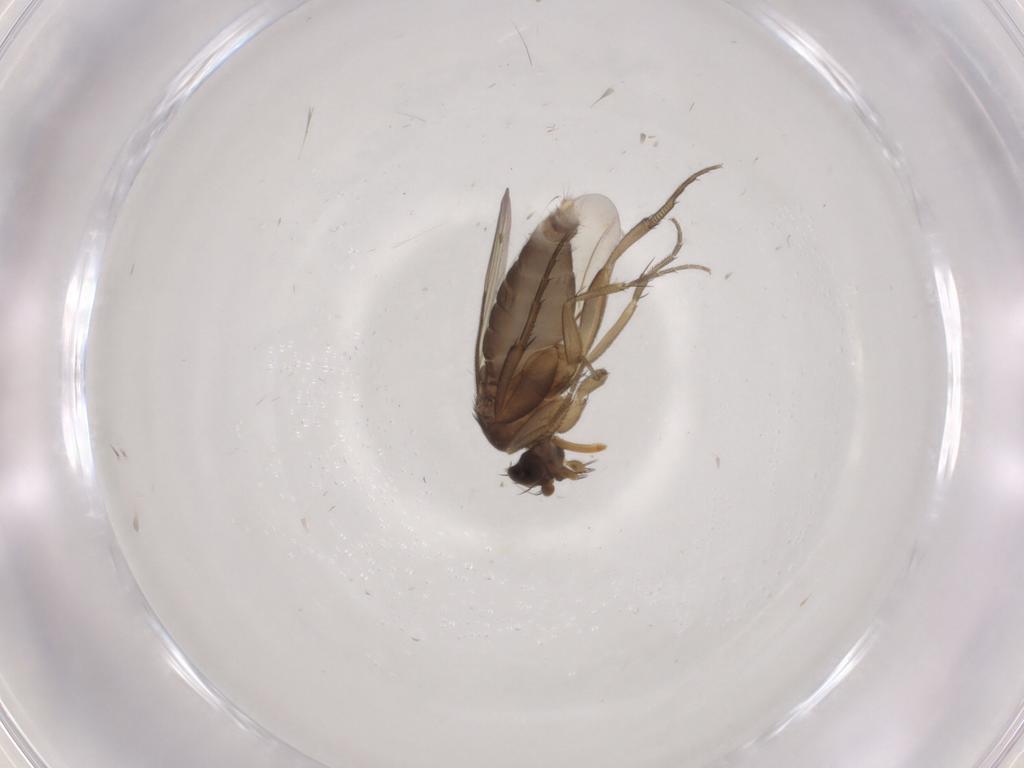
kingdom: Animalia
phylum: Arthropoda
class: Insecta
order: Diptera
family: Phoridae
